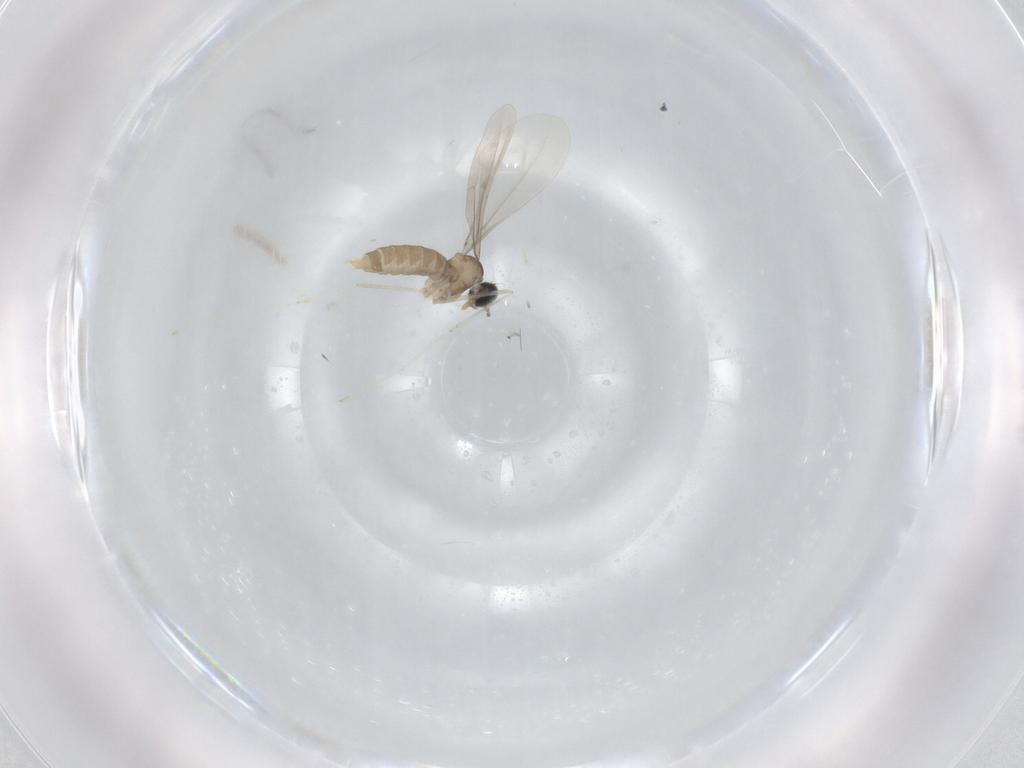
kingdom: Animalia
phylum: Arthropoda
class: Insecta
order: Diptera
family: Cecidomyiidae
